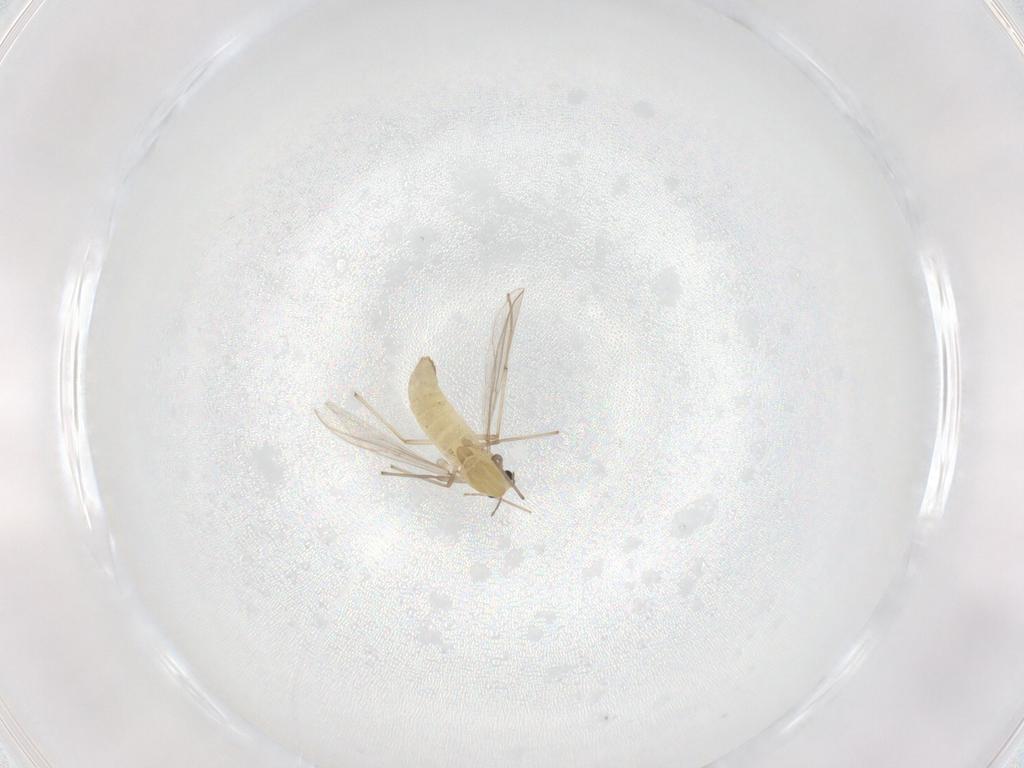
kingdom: Animalia
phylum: Arthropoda
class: Insecta
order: Diptera
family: Chironomidae
